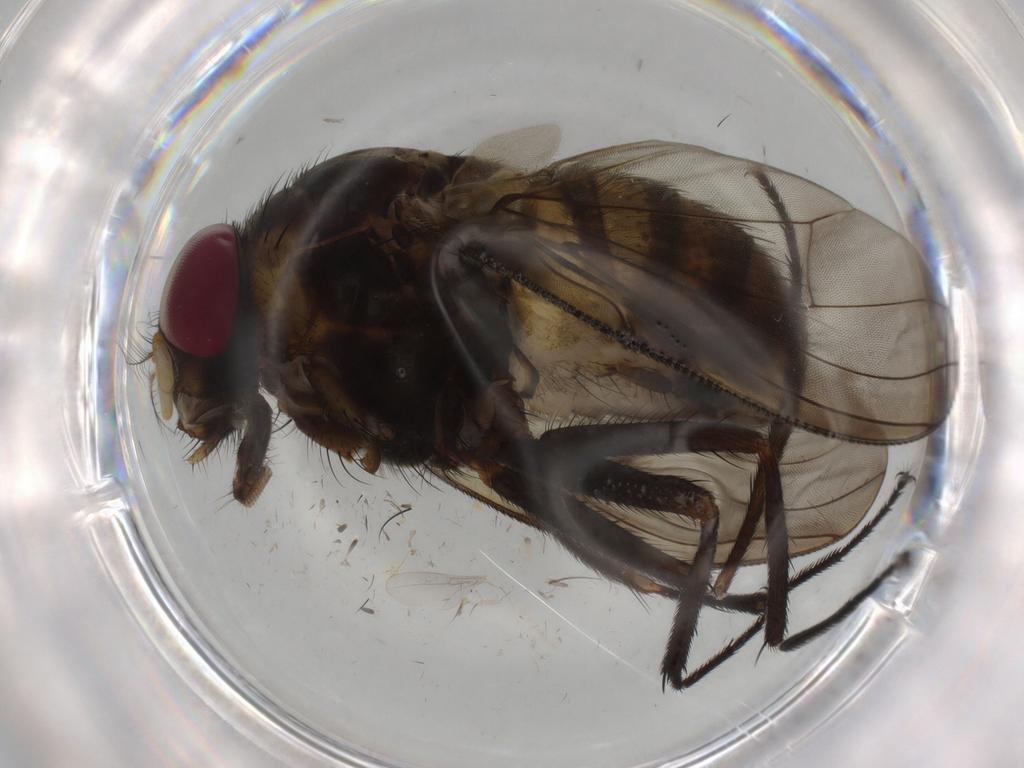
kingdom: Animalia
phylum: Arthropoda
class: Insecta
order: Diptera
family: Chironomidae
